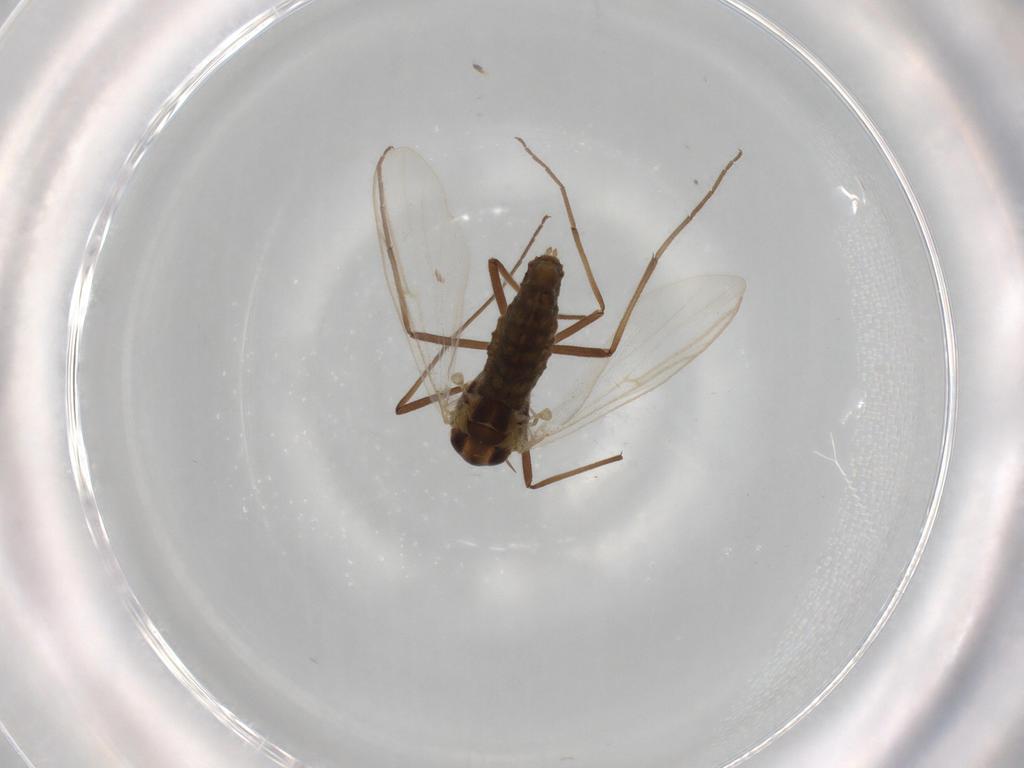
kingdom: Animalia
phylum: Arthropoda
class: Insecta
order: Diptera
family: Chironomidae
